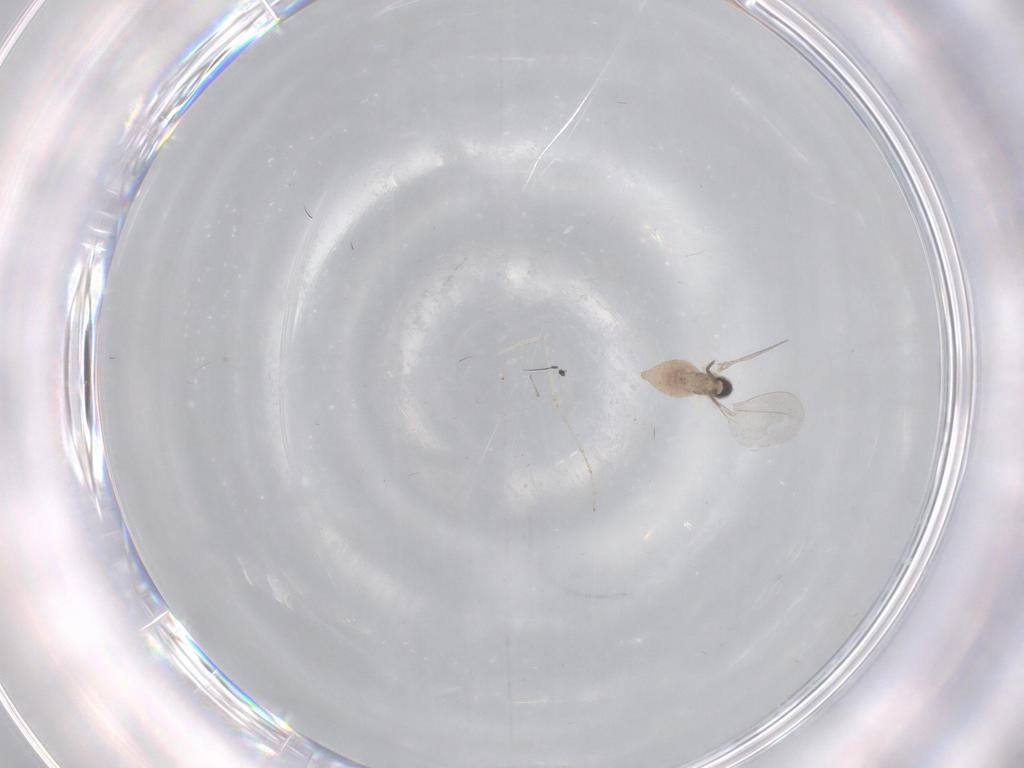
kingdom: Animalia
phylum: Arthropoda
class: Insecta
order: Diptera
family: Cecidomyiidae
